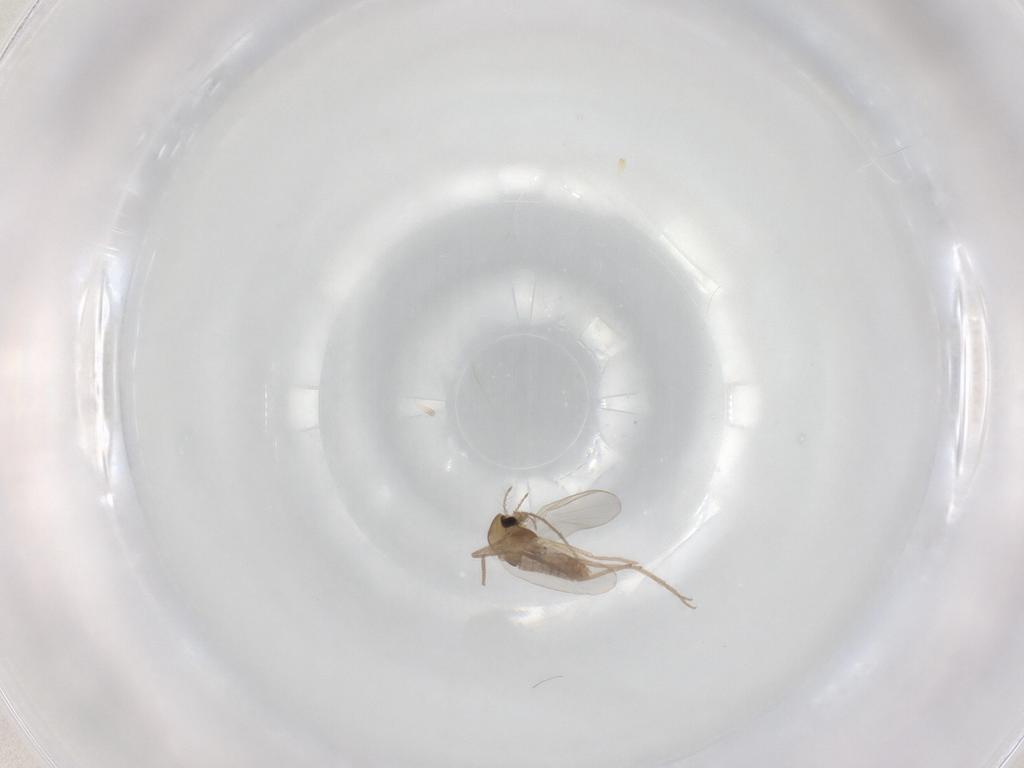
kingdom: Animalia
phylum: Arthropoda
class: Insecta
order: Diptera
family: Chironomidae
